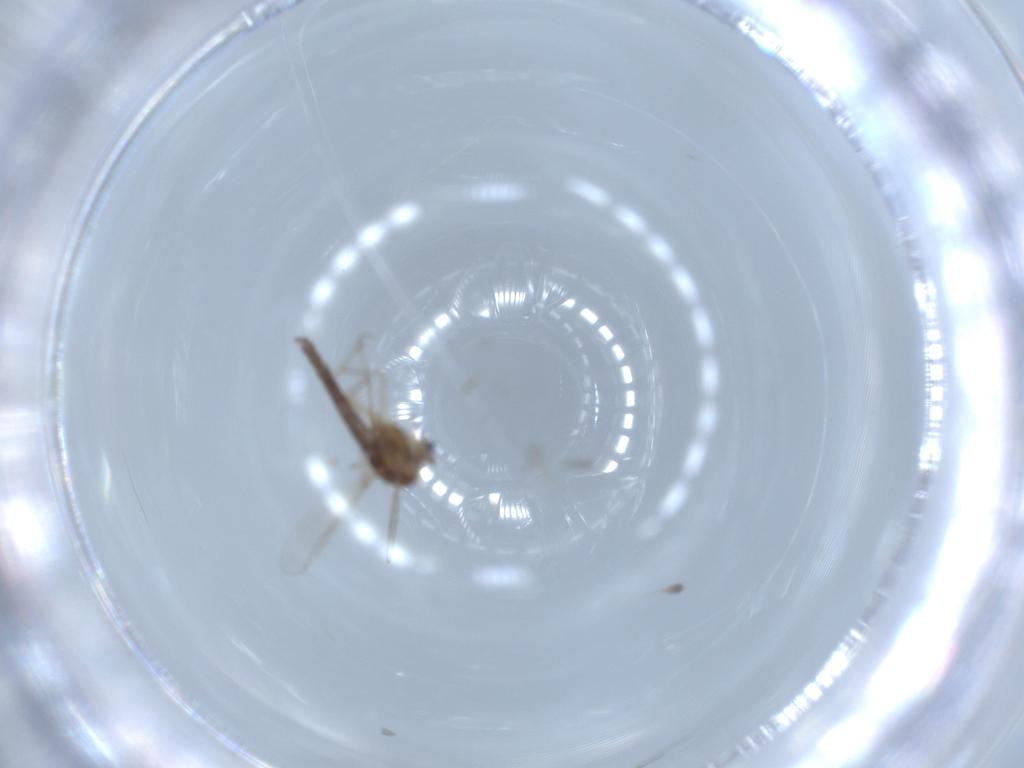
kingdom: Animalia
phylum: Arthropoda
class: Insecta
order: Diptera
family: Chironomidae
